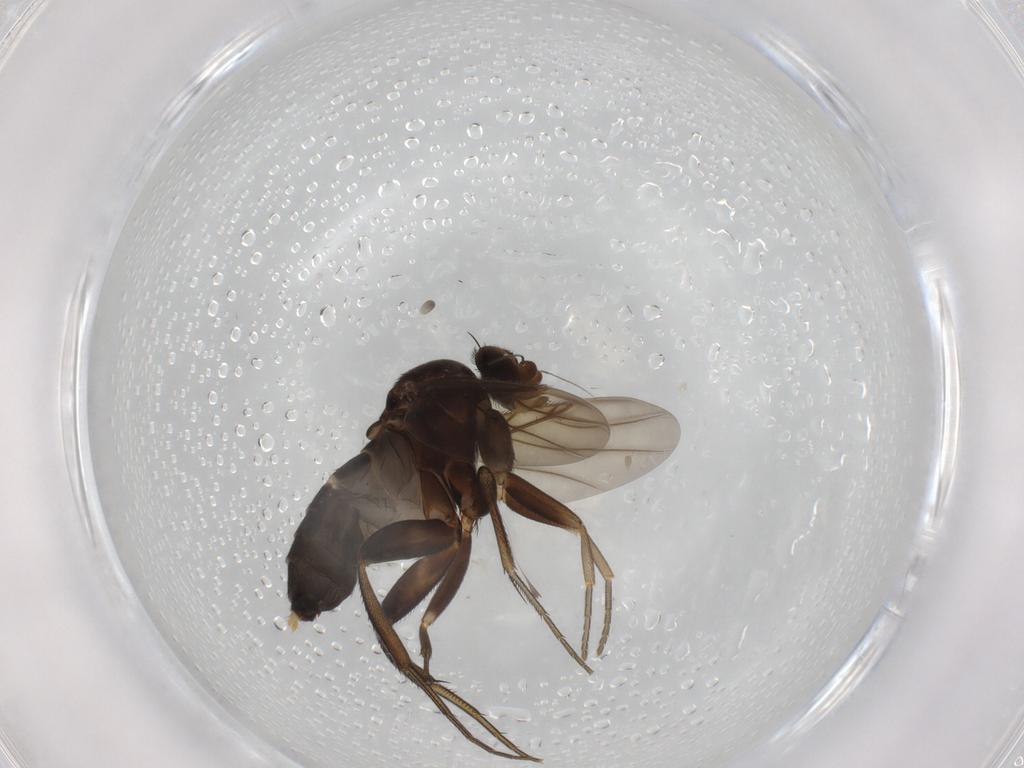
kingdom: Animalia
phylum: Arthropoda
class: Insecta
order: Diptera
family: Phoridae
